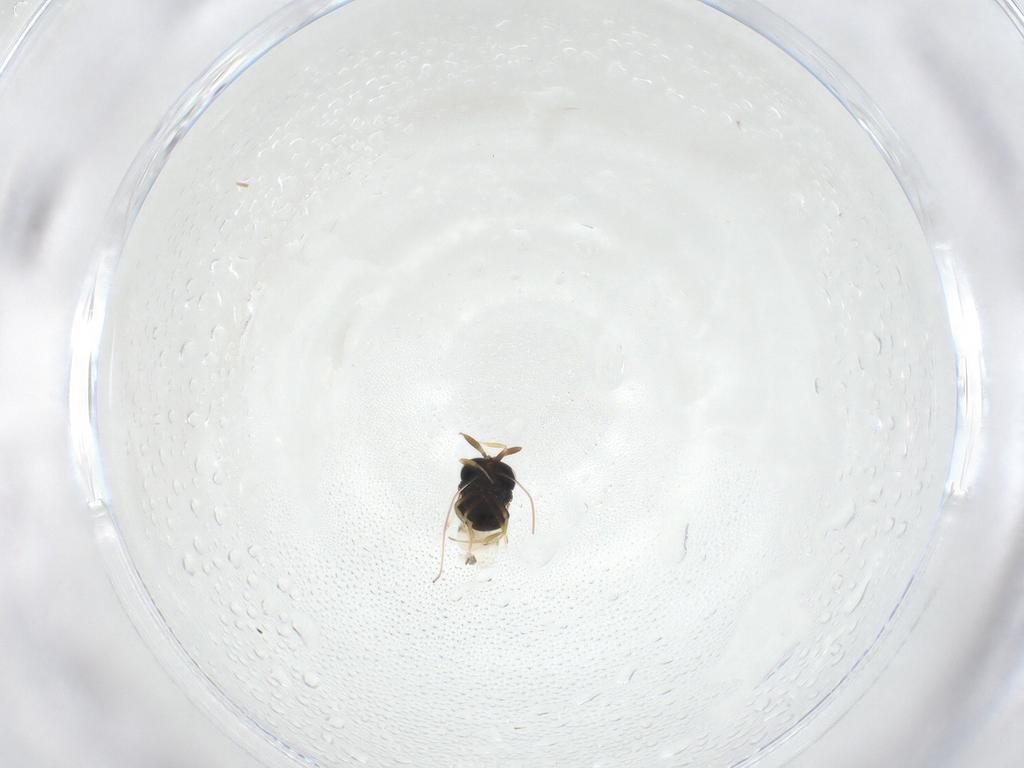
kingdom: Animalia
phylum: Arthropoda
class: Insecta
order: Hymenoptera
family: Scelionidae
